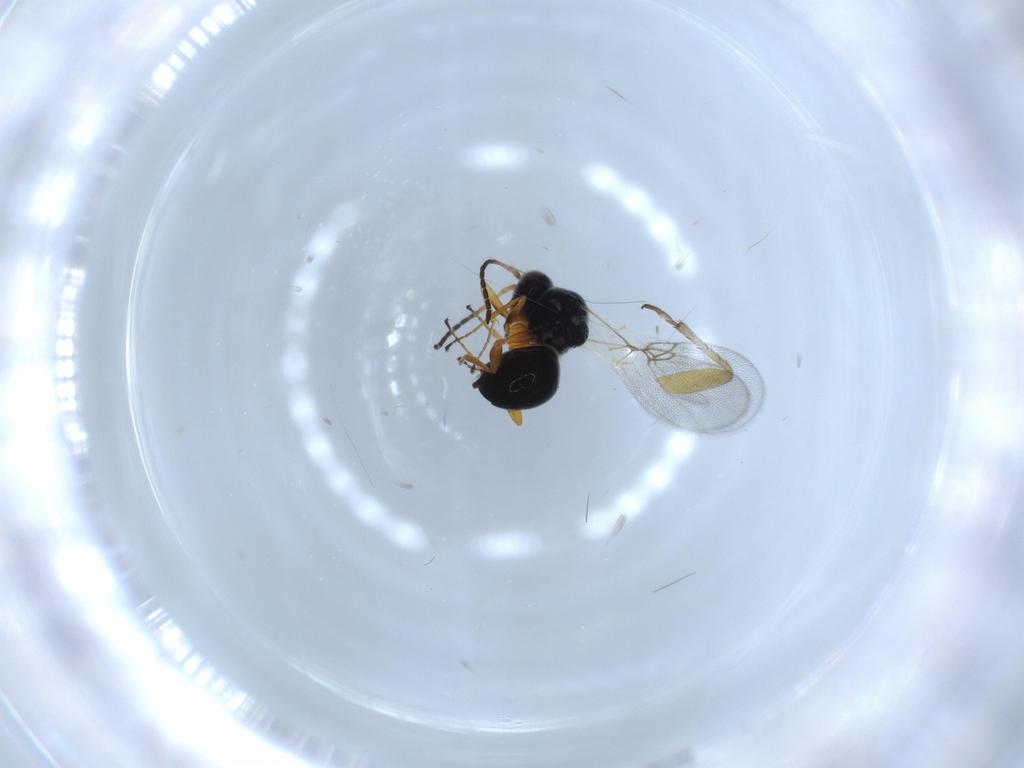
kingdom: Animalia
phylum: Arthropoda
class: Insecta
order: Hymenoptera
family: Figitidae
